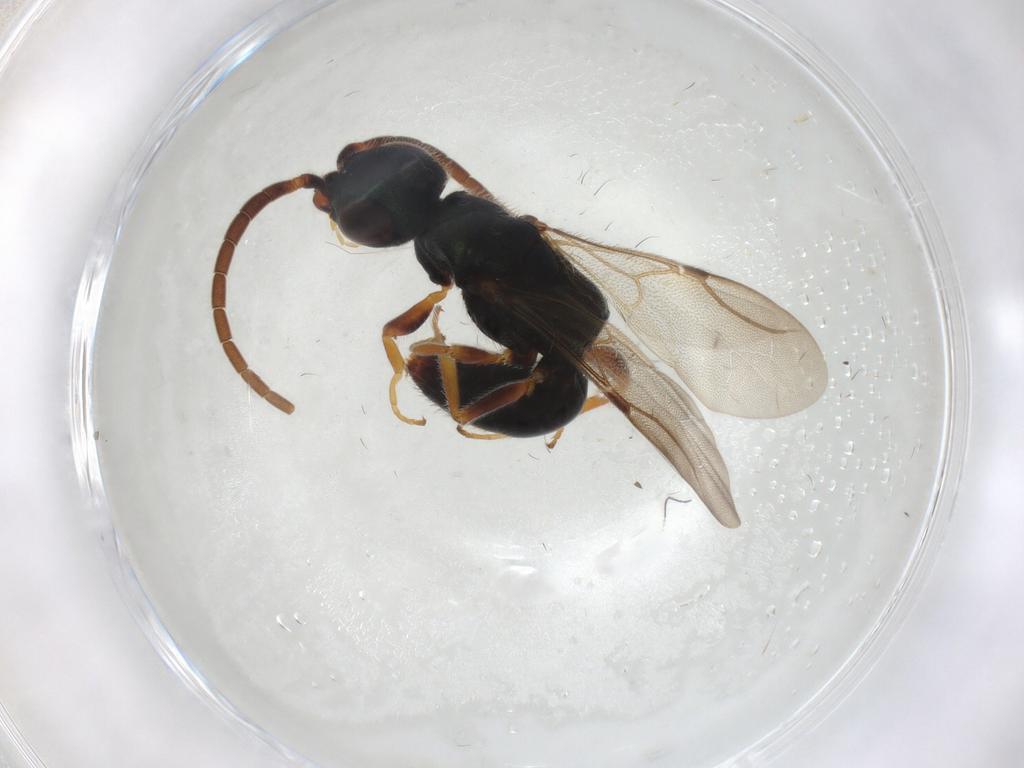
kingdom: Animalia
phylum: Arthropoda
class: Insecta
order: Hymenoptera
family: Bethylidae
